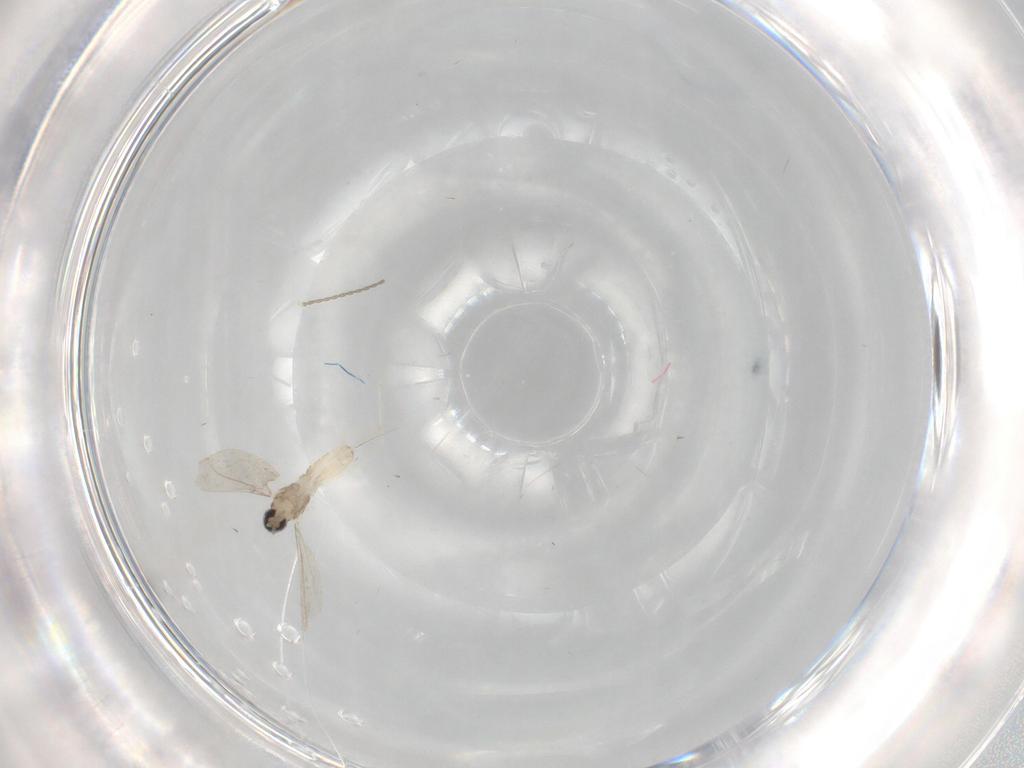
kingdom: Animalia
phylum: Arthropoda
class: Insecta
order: Diptera
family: Cecidomyiidae
